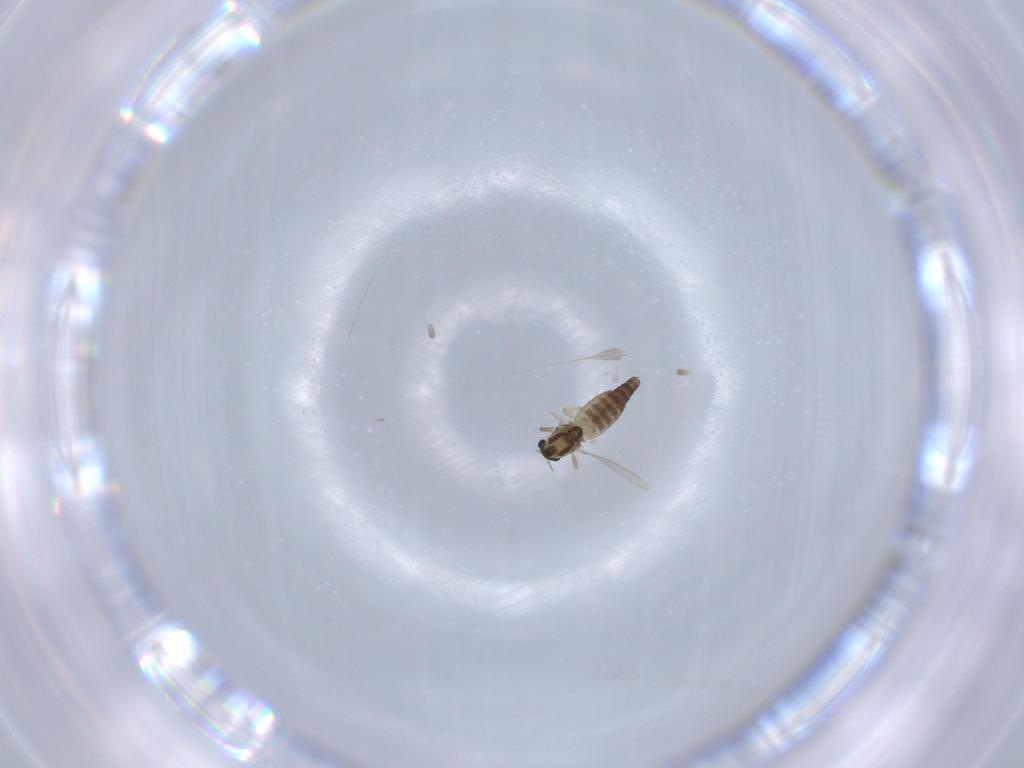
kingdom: Animalia
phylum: Arthropoda
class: Insecta
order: Diptera
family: Chironomidae
